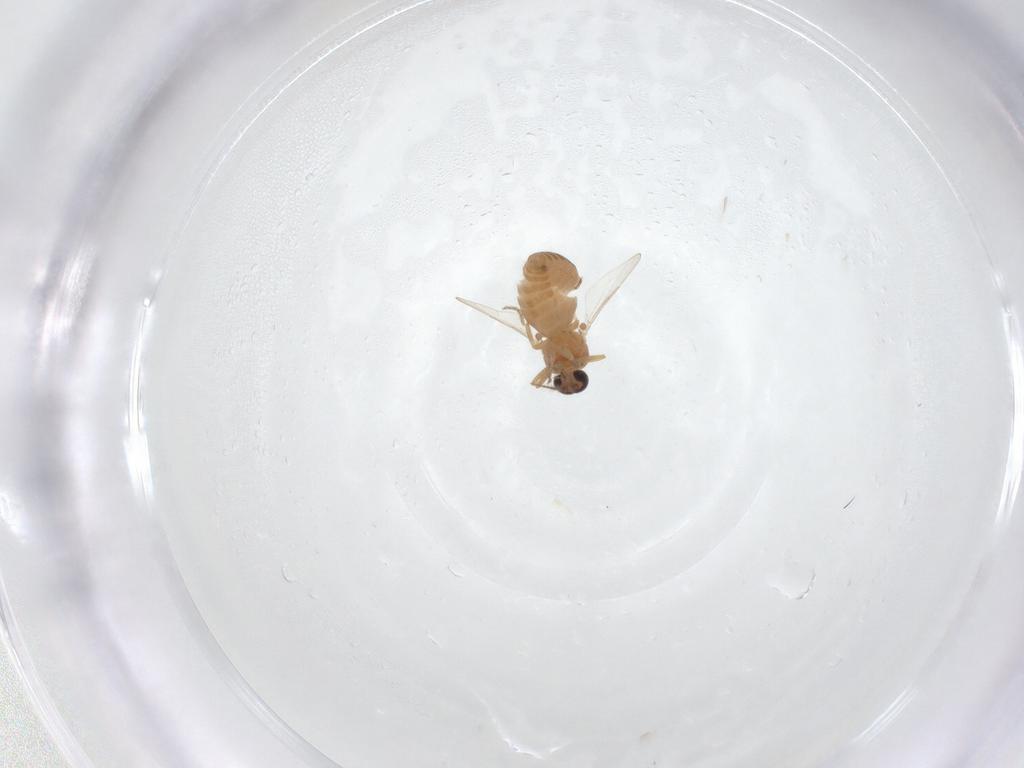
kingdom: Animalia
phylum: Arthropoda
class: Insecta
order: Diptera
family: Ceratopogonidae
